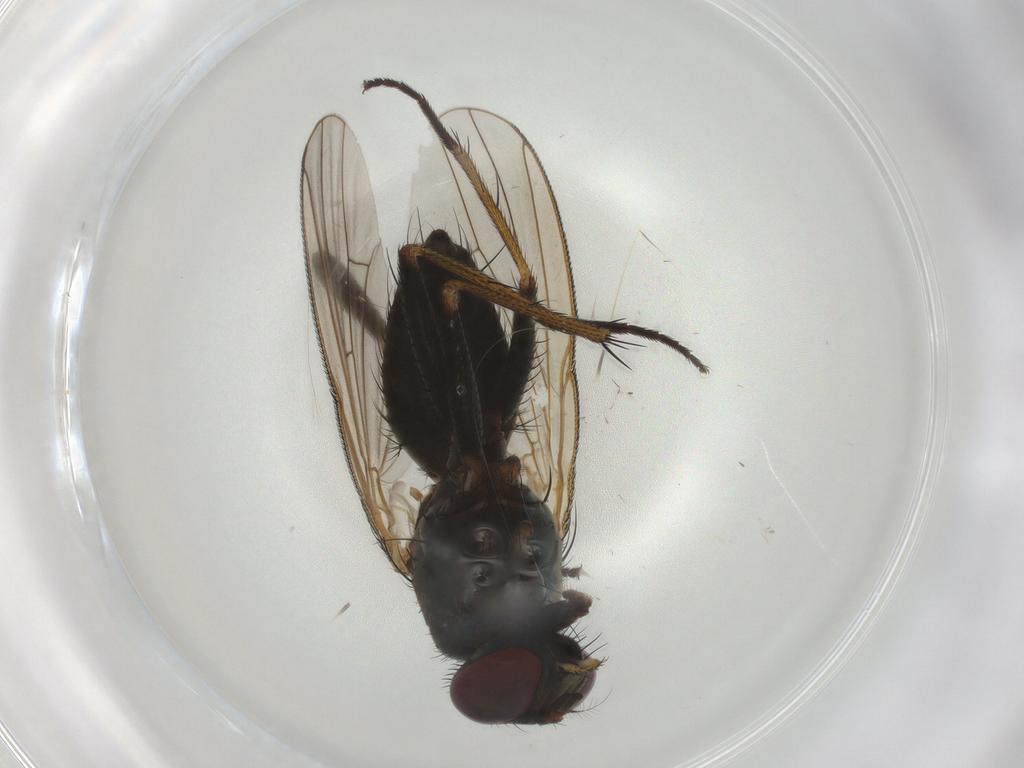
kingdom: Animalia
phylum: Arthropoda
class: Insecta
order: Diptera
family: Muscidae
